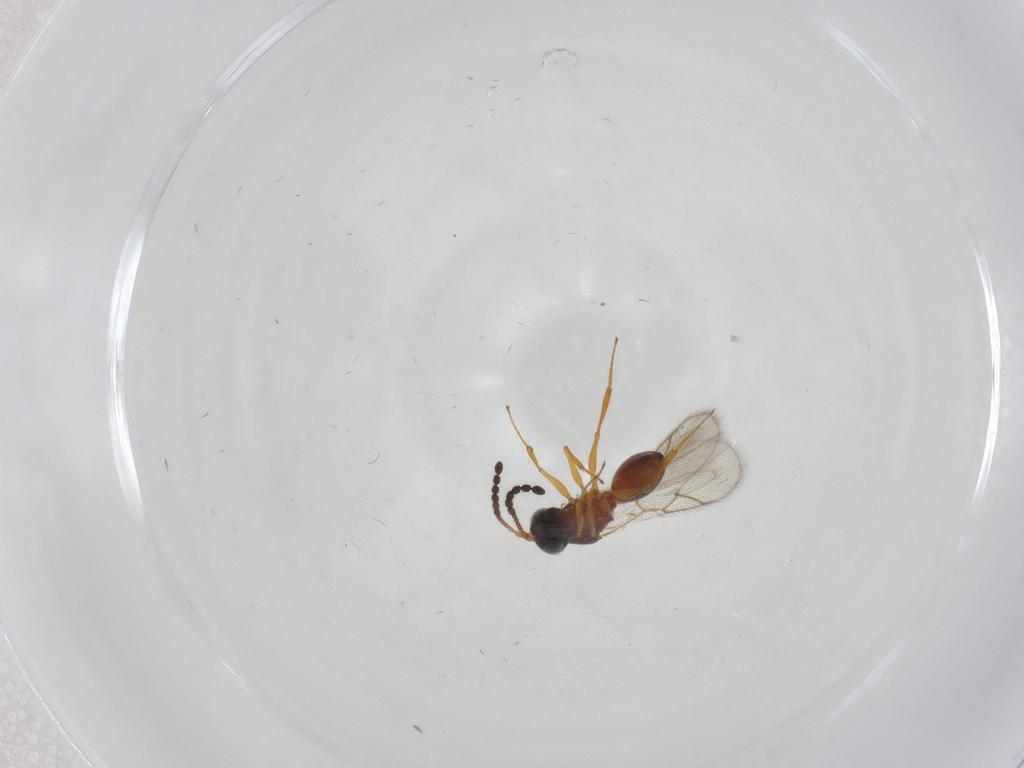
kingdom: Animalia
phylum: Arthropoda
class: Insecta
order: Hymenoptera
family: Figitidae
